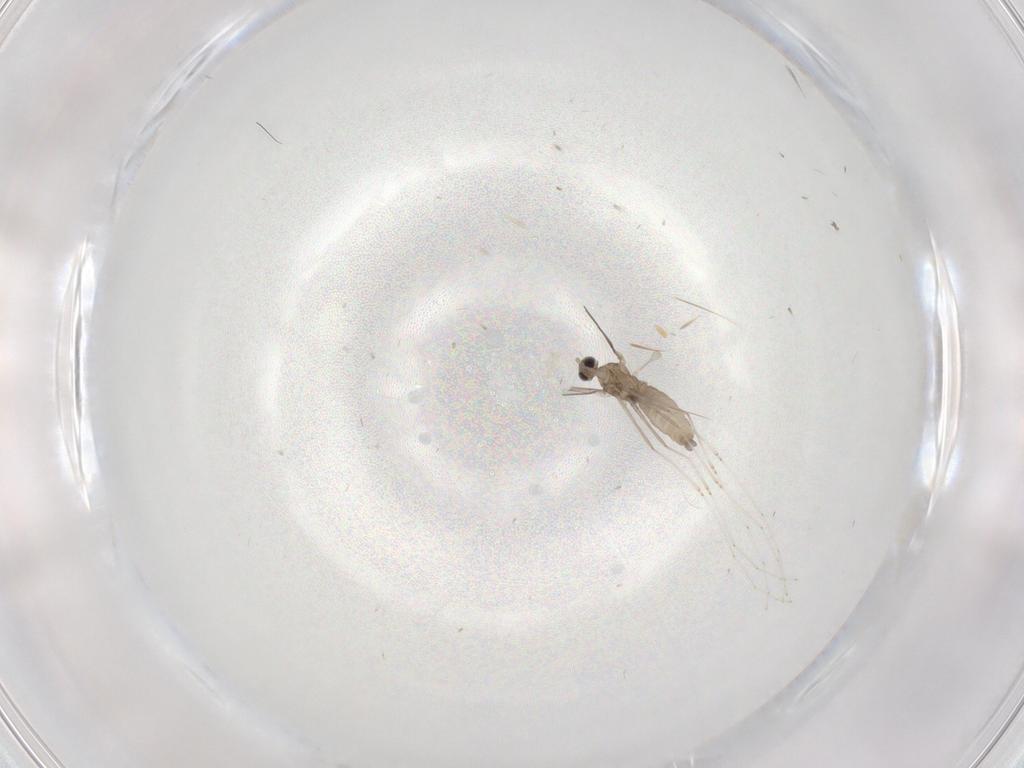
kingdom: Animalia
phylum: Arthropoda
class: Insecta
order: Diptera
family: Cecidomyiidae
